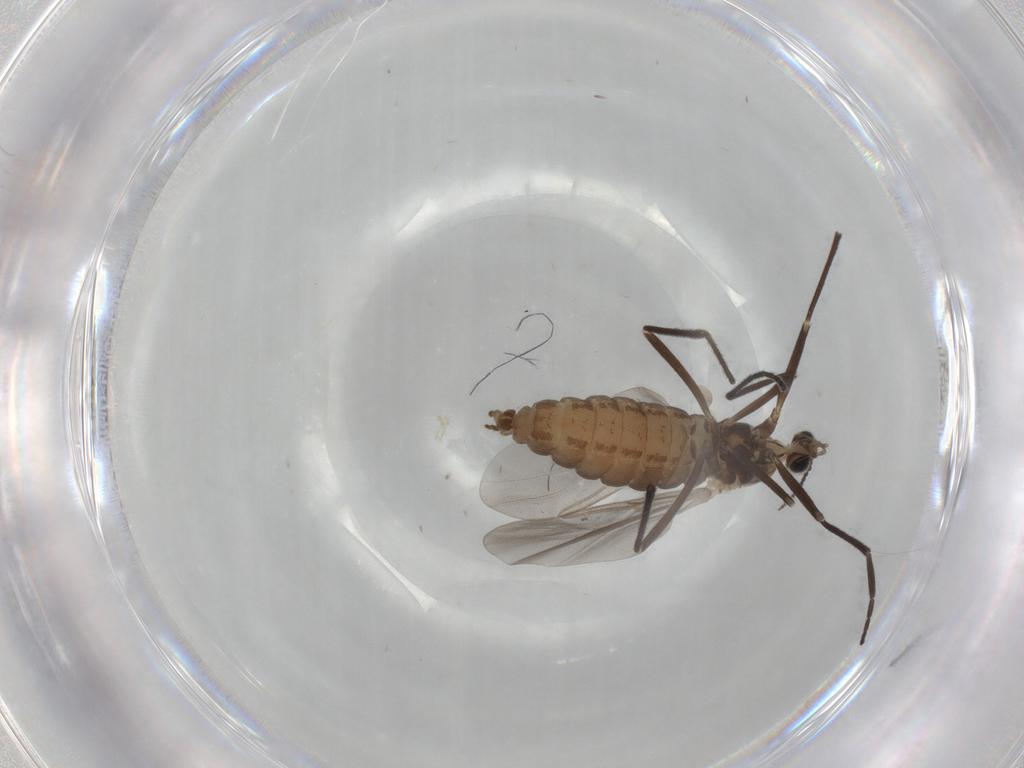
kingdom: Animalia
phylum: Arthropoda
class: Insecta
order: Diptera
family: Cecidomyiidae
